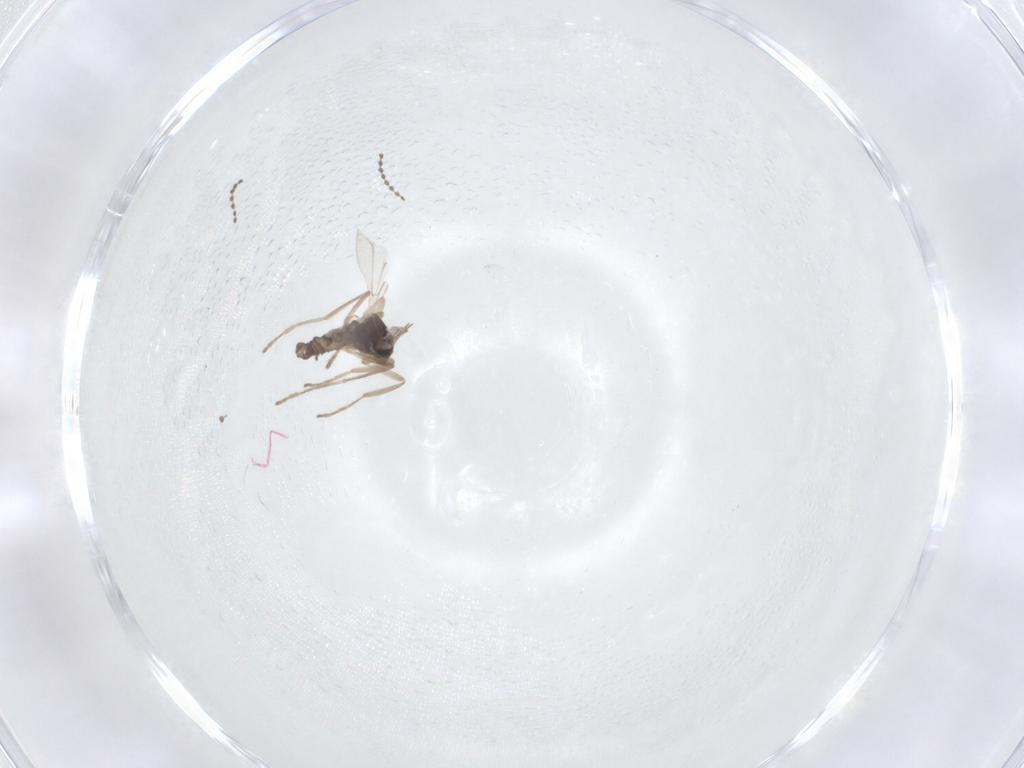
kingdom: Animalia
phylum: Arthropoda
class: Insecta
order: Diptera
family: Cecidomyiidae
